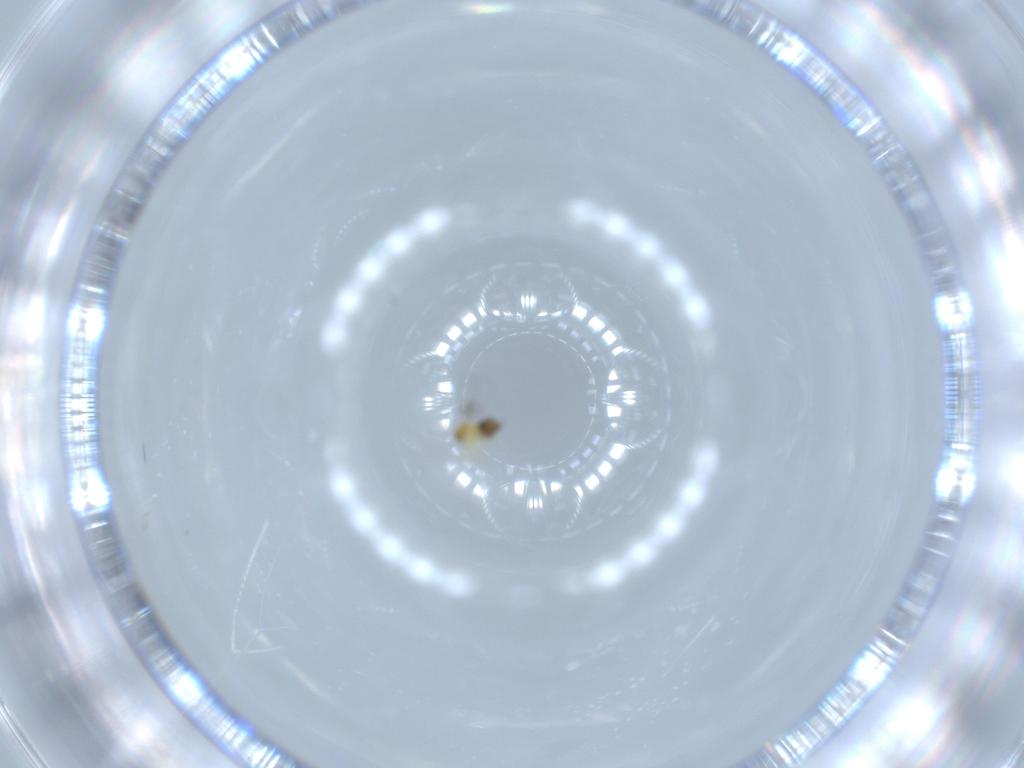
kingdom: Animalia
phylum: Arthropoda
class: Insecta
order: Hymenoptera
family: Trichogrammatidae
